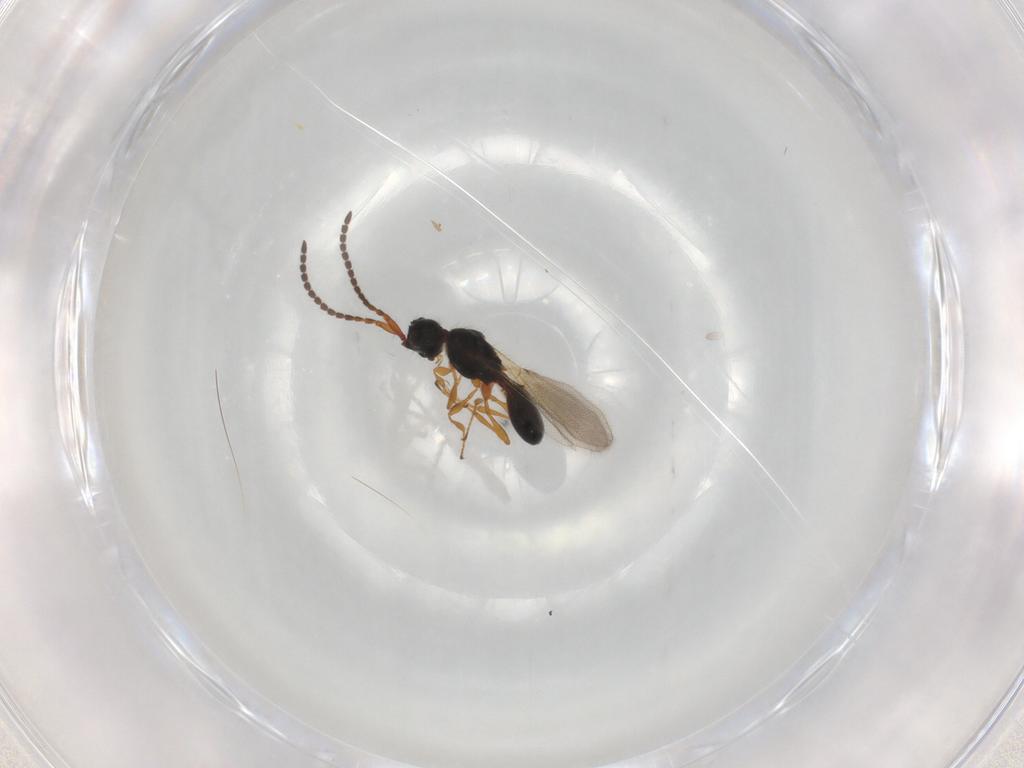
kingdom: Animalia
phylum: Arthropoda
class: Insecta
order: Hymenoptera
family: Diapriidae
